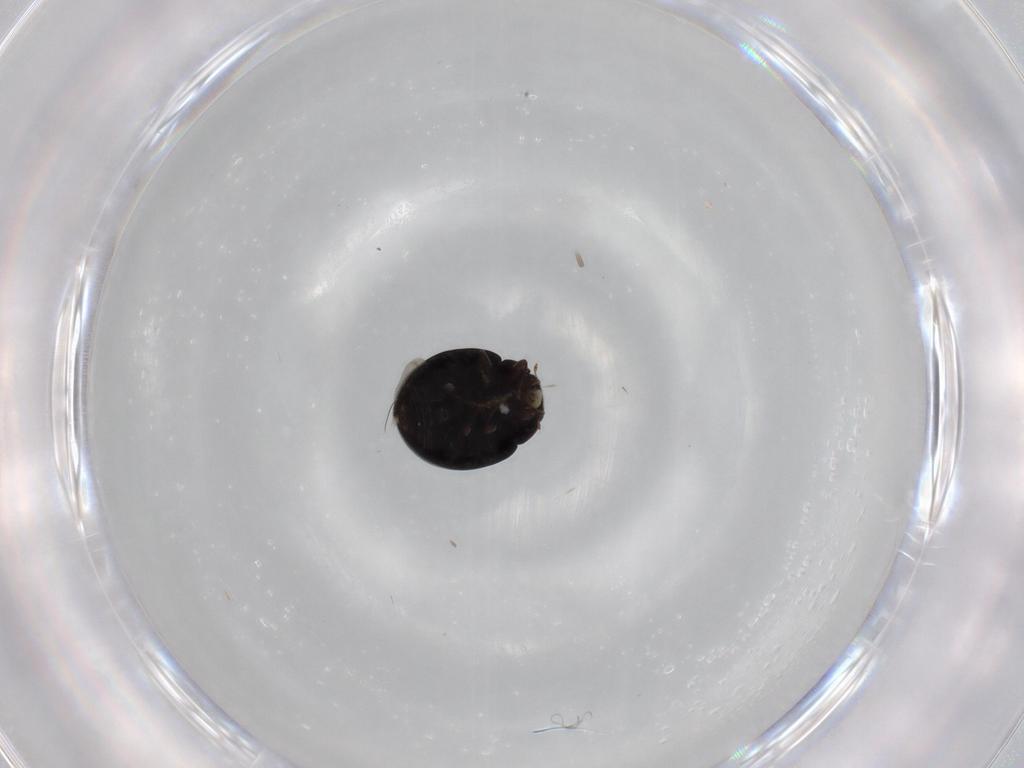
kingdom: Animalia
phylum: Arthropoda
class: Insecta
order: Coleoptera
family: Coccinellidae
